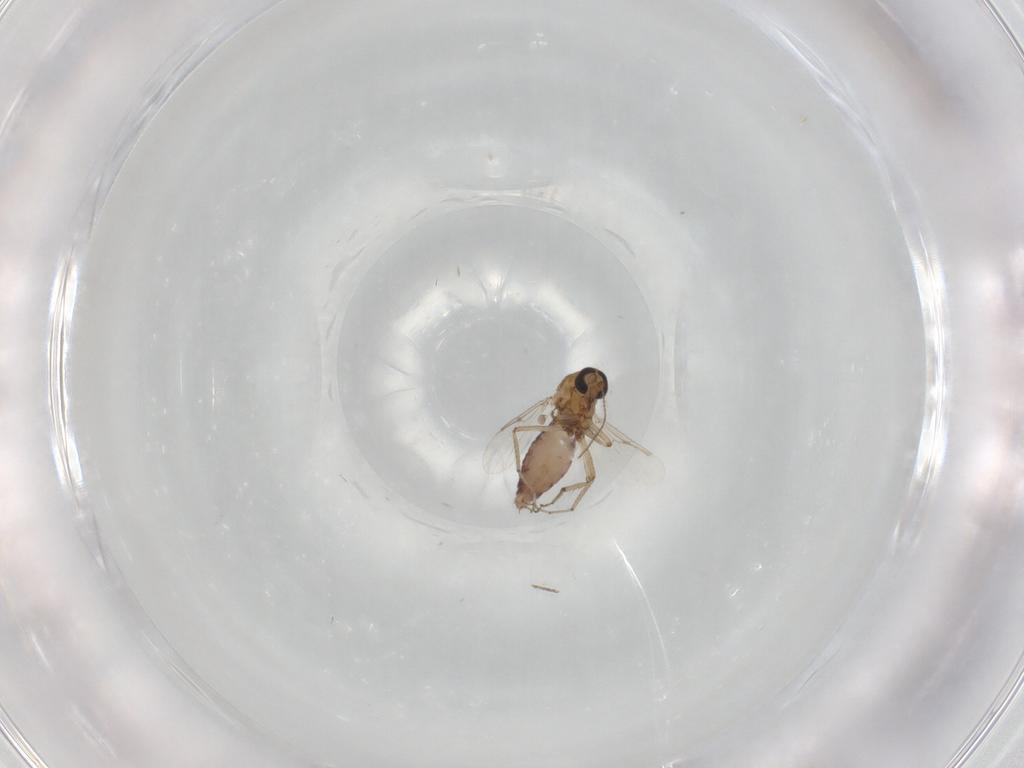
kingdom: Animalia
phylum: Arthropoda
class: Insecta
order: Diptera
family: Ceratopogonidae
